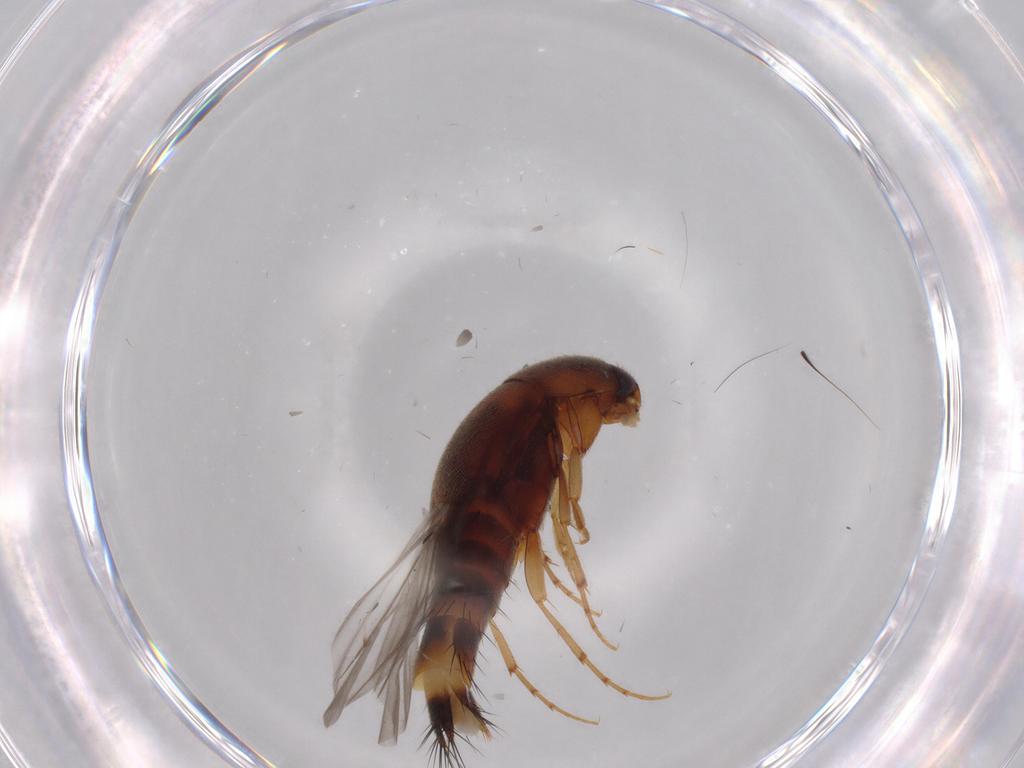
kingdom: Animalia
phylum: Arthropoda
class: Insecta
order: Coleoptera
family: Staphylinidae
